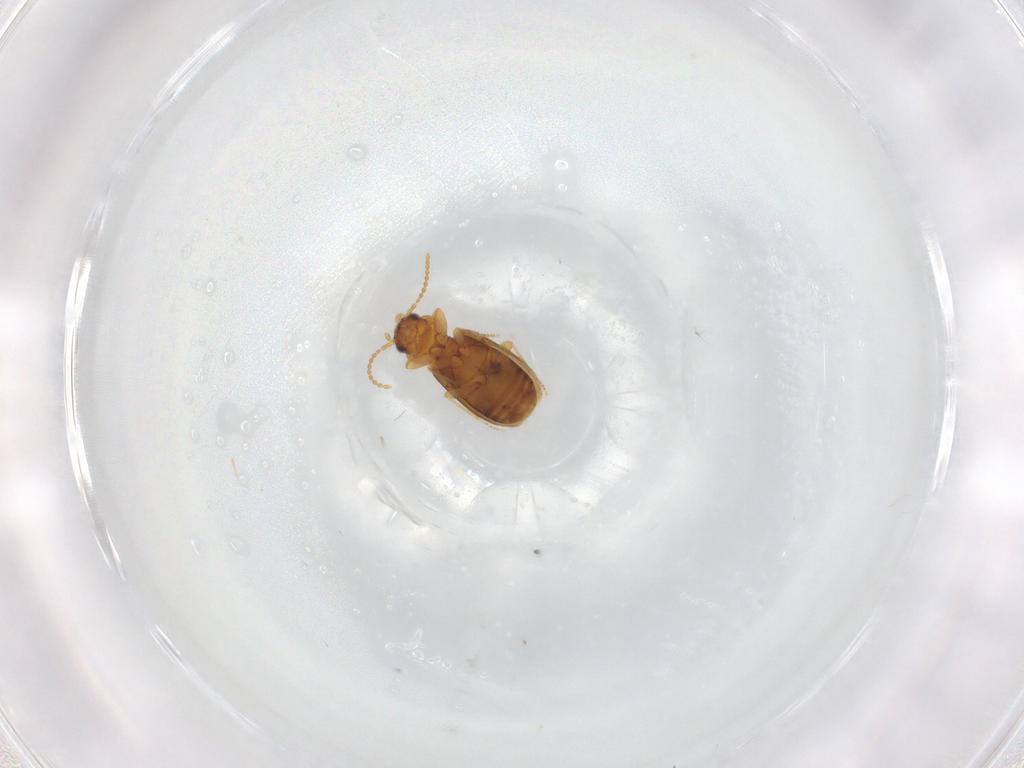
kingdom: Animalia
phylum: Arthropoda
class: Insecta
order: Coleoptera
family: Carabidae
